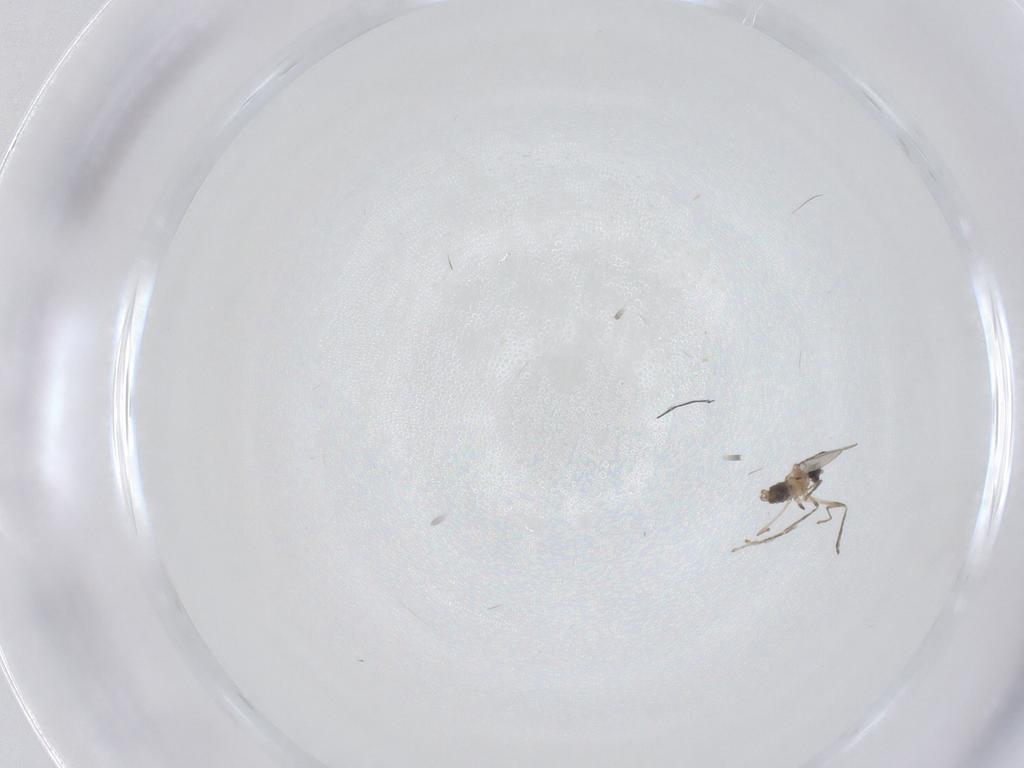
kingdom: Animalia
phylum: Arthropoda
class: Insecta
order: Diptera
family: Cecidomyiidae
